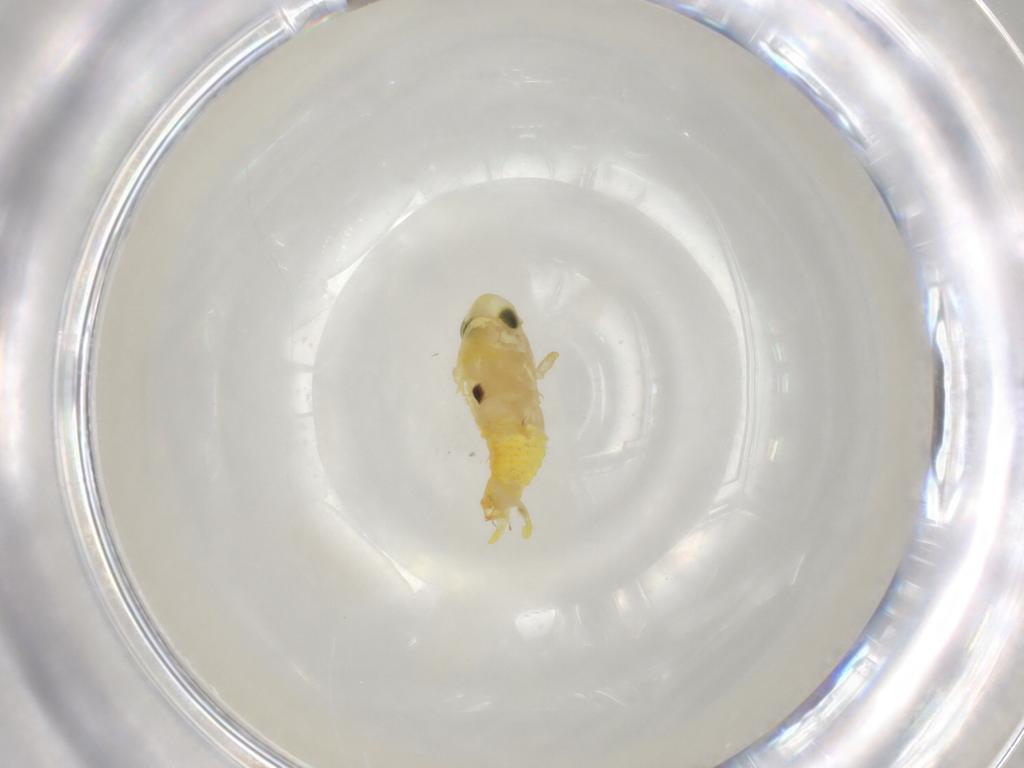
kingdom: Animalia
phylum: Arthropoda
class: Insecta
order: Hemiptera
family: Cicadellidae
